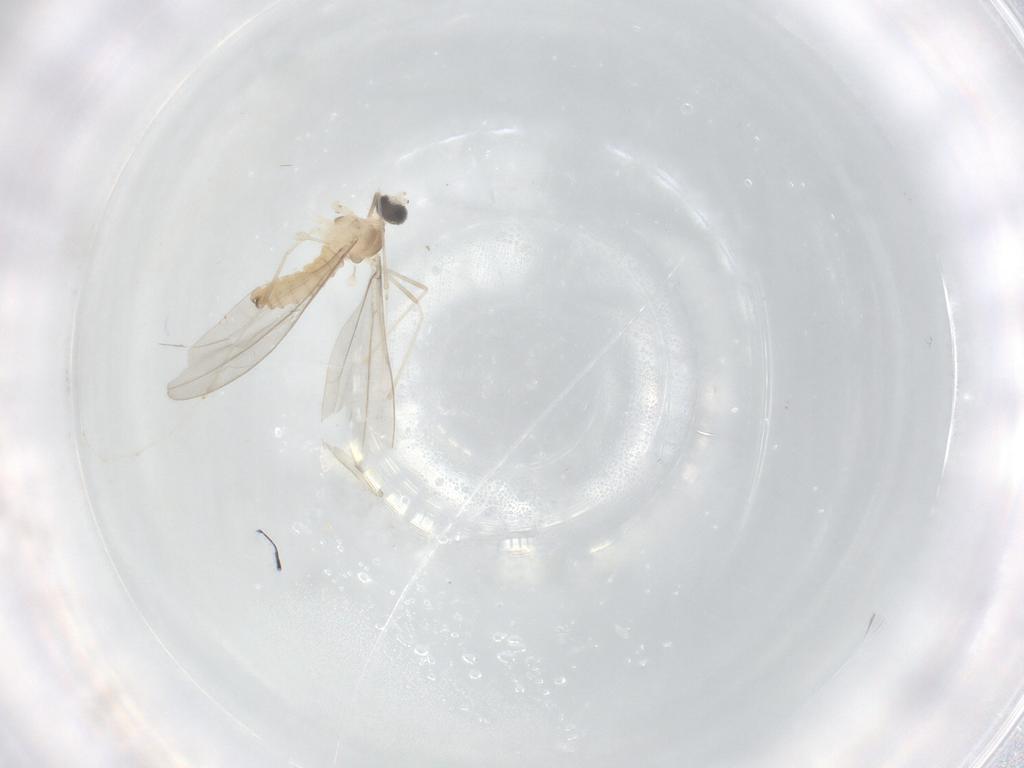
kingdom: Animalia
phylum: Arthropoda
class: Insecta
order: Diptera
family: Cecidomyiidae
